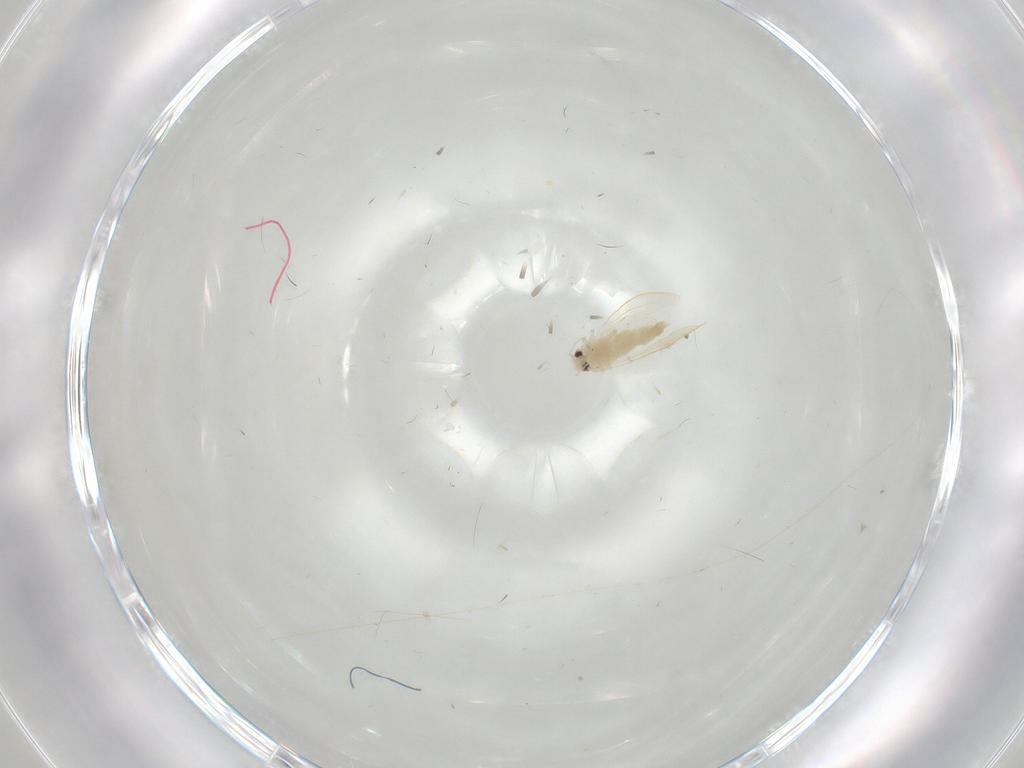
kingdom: Animalia
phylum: Arthropoda
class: Insecta
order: Hemiptera
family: Aleyrodidae
